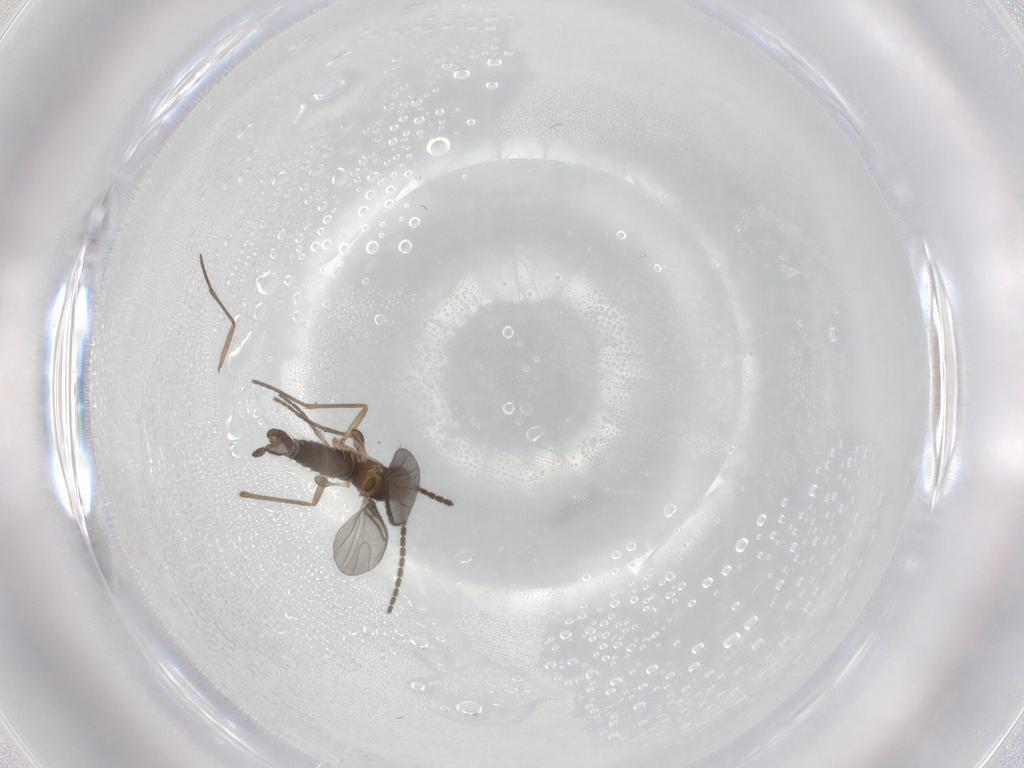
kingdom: Animalia
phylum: Arthropoda
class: Insecta
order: Diptera
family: Sciaridae
